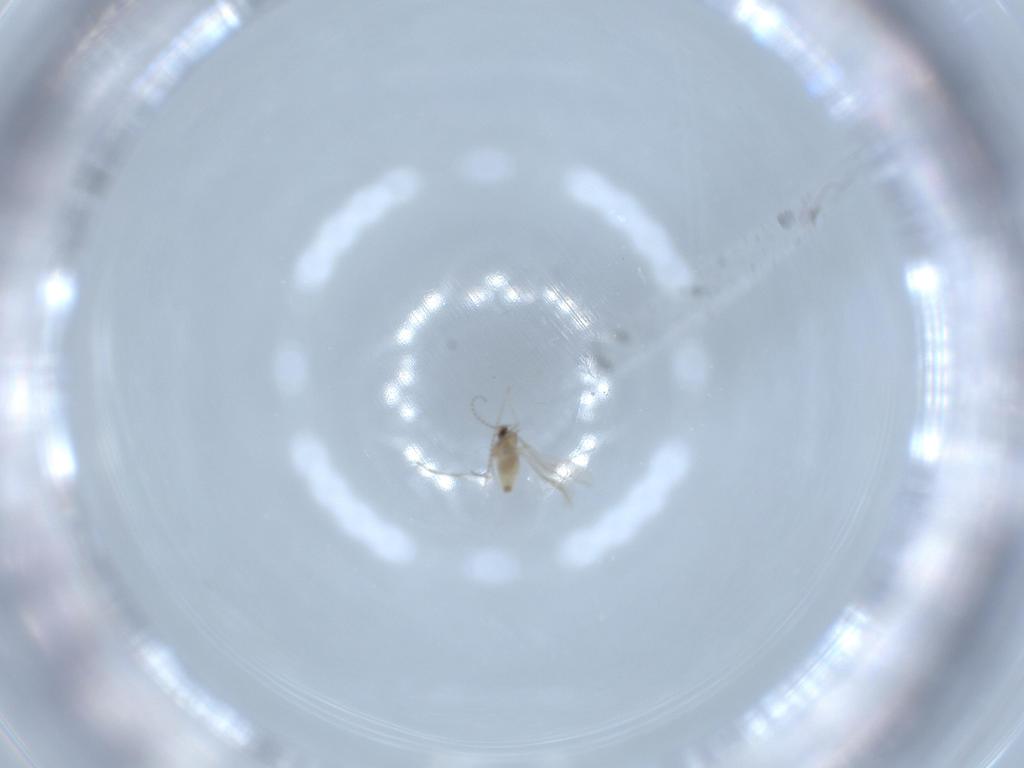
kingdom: Animalia
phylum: Arthropoda
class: Insecta
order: Diptera
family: Cecidomyiidae
